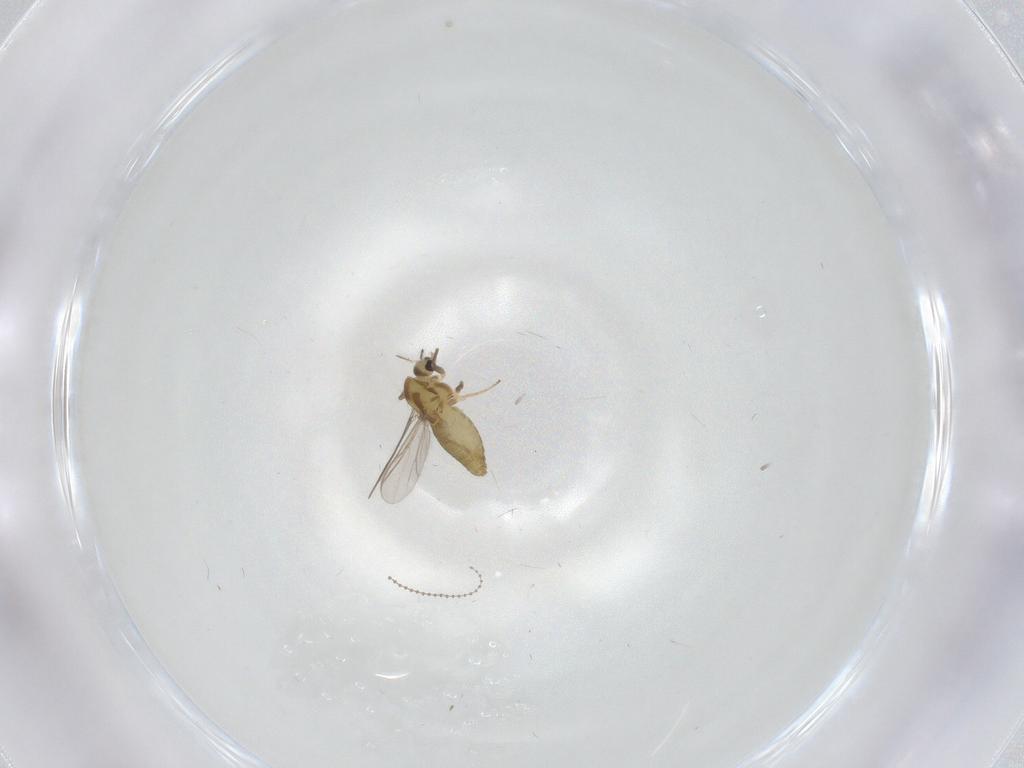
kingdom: Animalia
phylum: Arthropoda
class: Insecta
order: Diptera
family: Chironomidae
